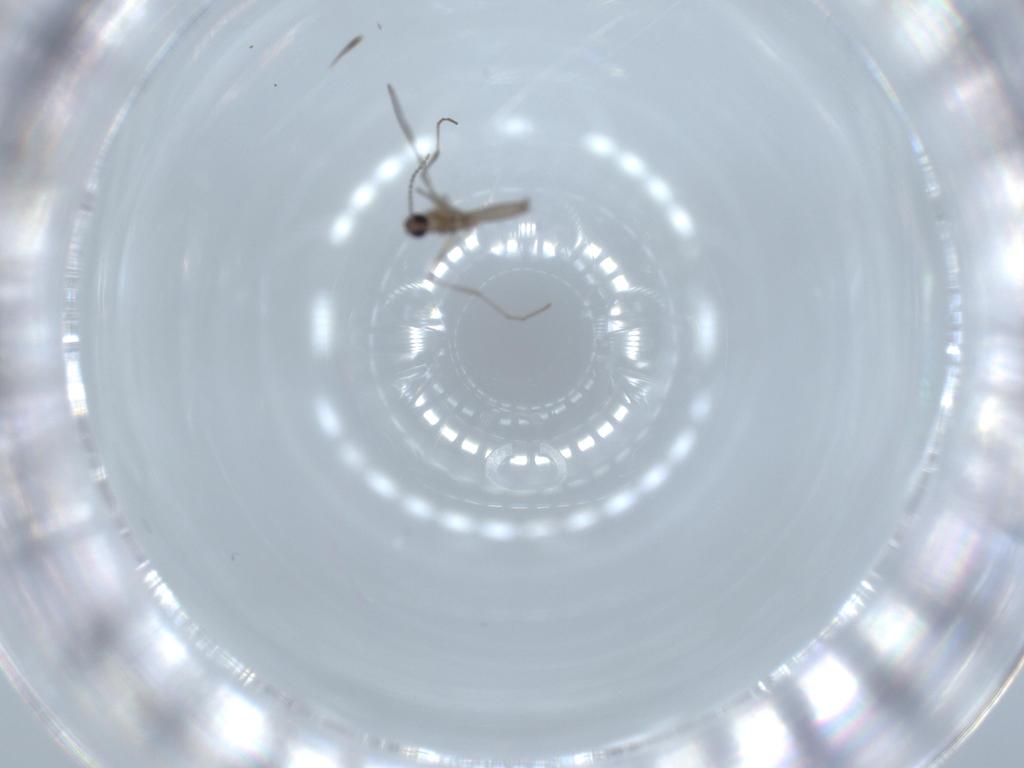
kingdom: Animalia
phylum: Arthropoda
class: Insecta
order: Diptera
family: Cecidomyiidae
